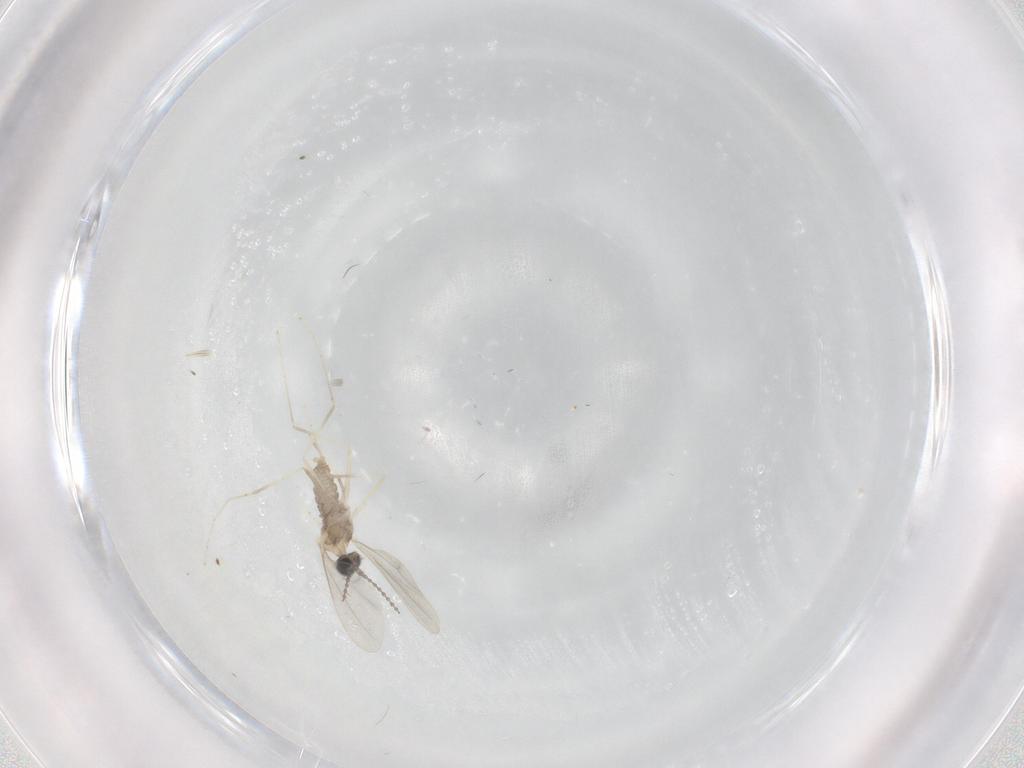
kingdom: Animalia
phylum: Arthropoda
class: Insecta
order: Diptera
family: Cecidomyiidae
